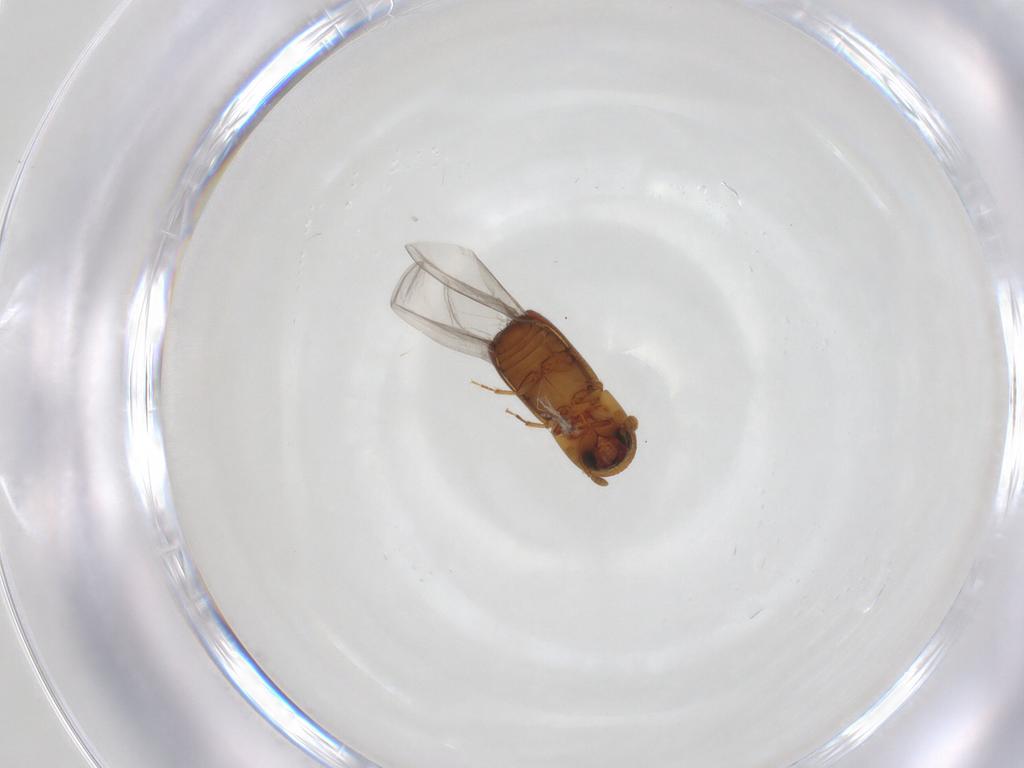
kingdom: Animalia
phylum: Arthropoda
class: Insecta
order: Coleoptera
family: Curculionidae
